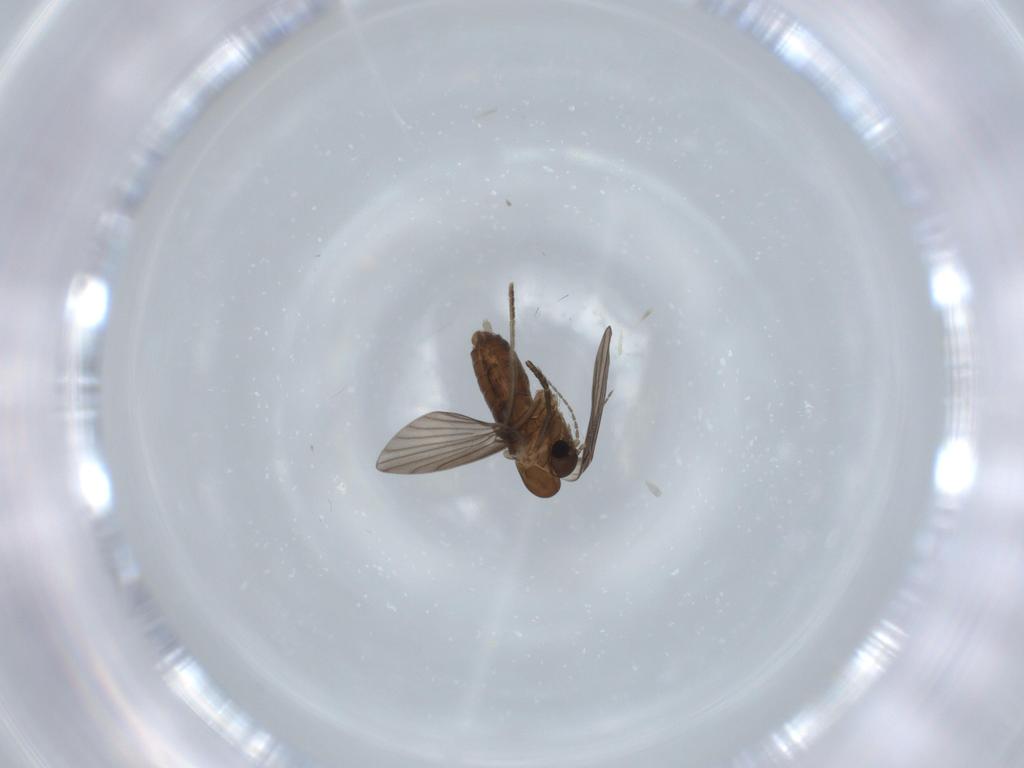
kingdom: Animalia
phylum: Arthropoda
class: Insecta
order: Diptera
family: Psychodidae
